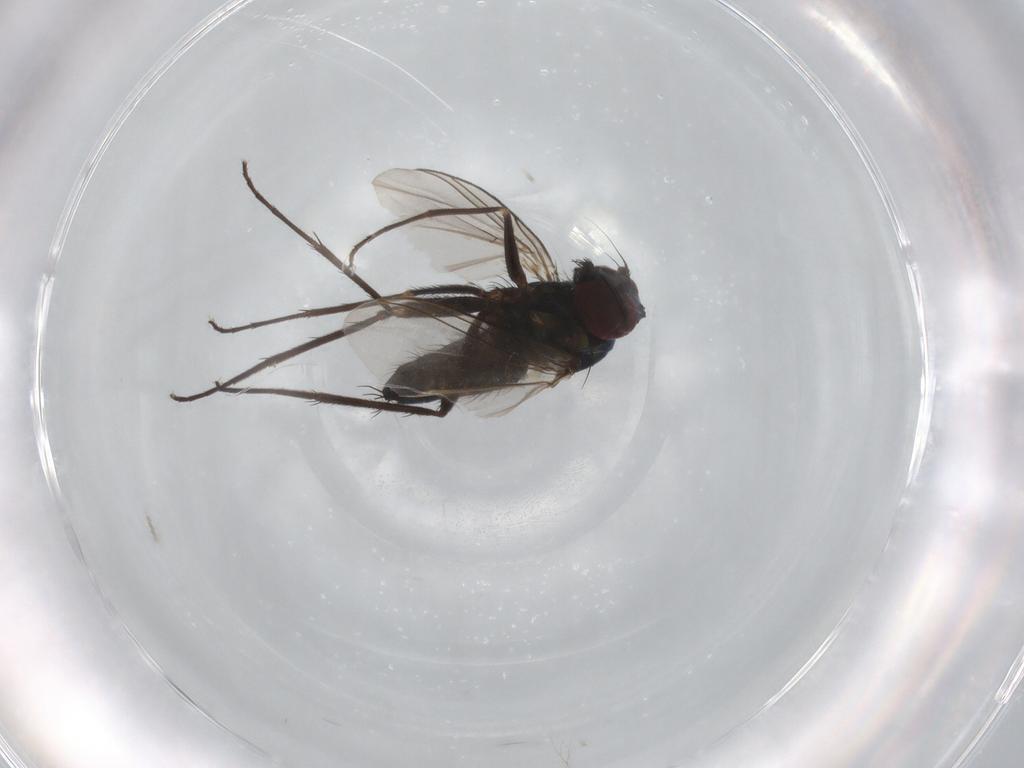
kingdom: Animalia
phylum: Arthropoda
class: Insecta
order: Diptera
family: Dolichopodidae
